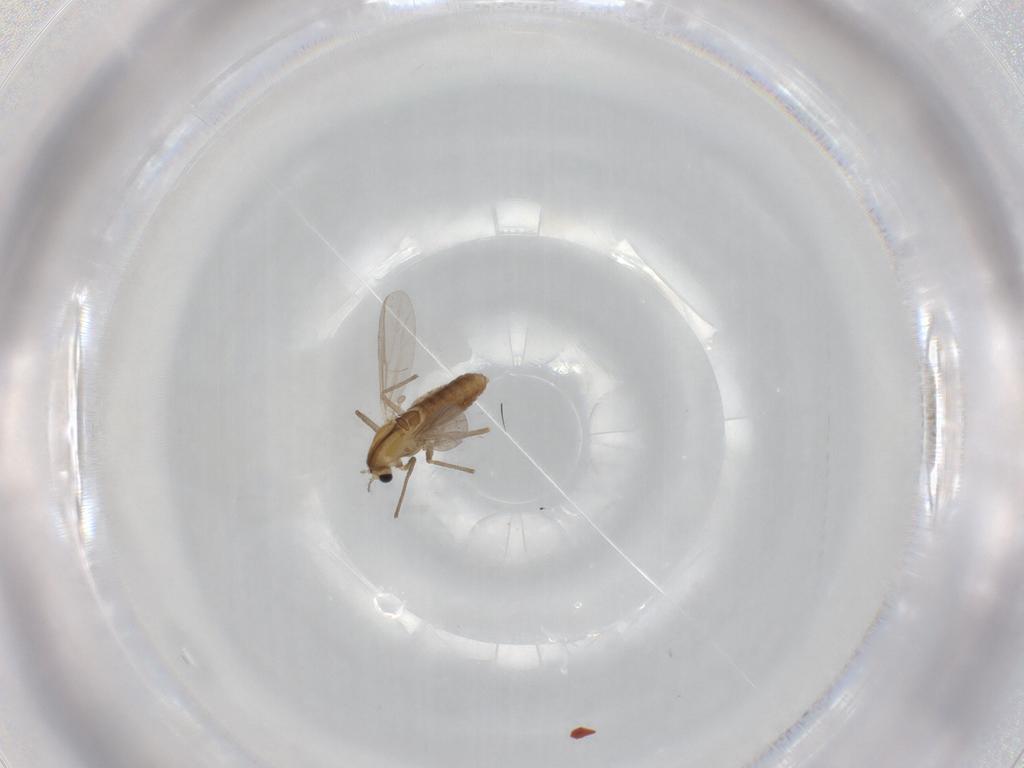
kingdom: Animalia
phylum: Arthropoda
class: Insecta
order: Diptera
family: Chironomidae
